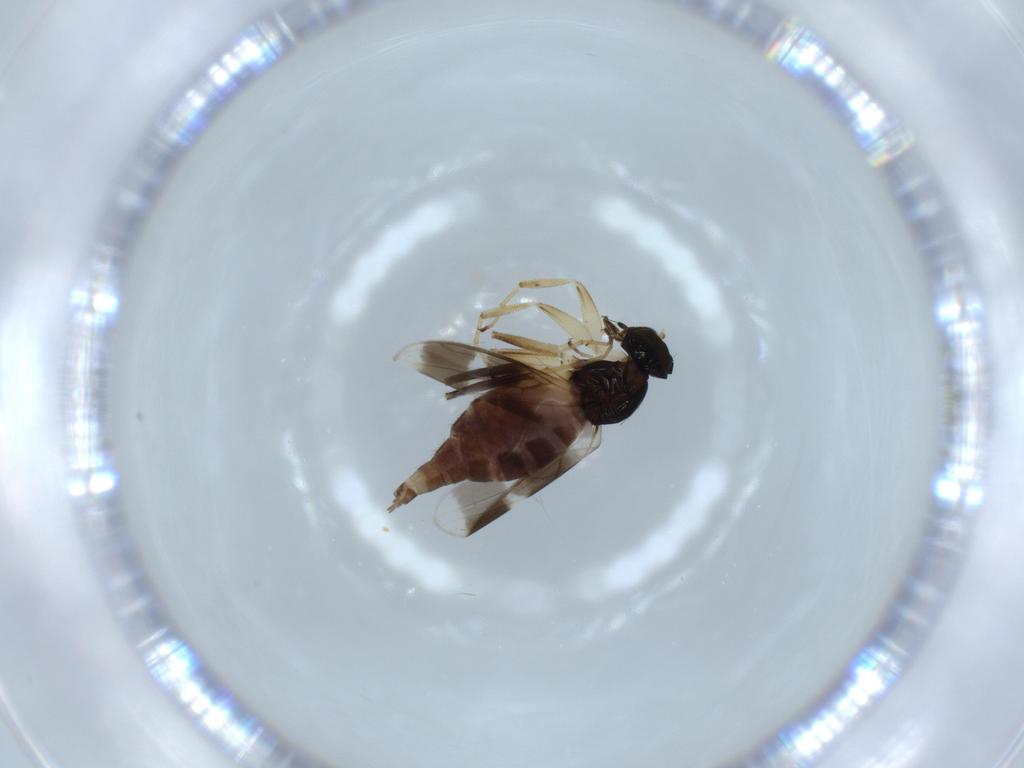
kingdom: Animalia
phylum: Arthropoda
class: Insecta
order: Diptera
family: Hybotidae
